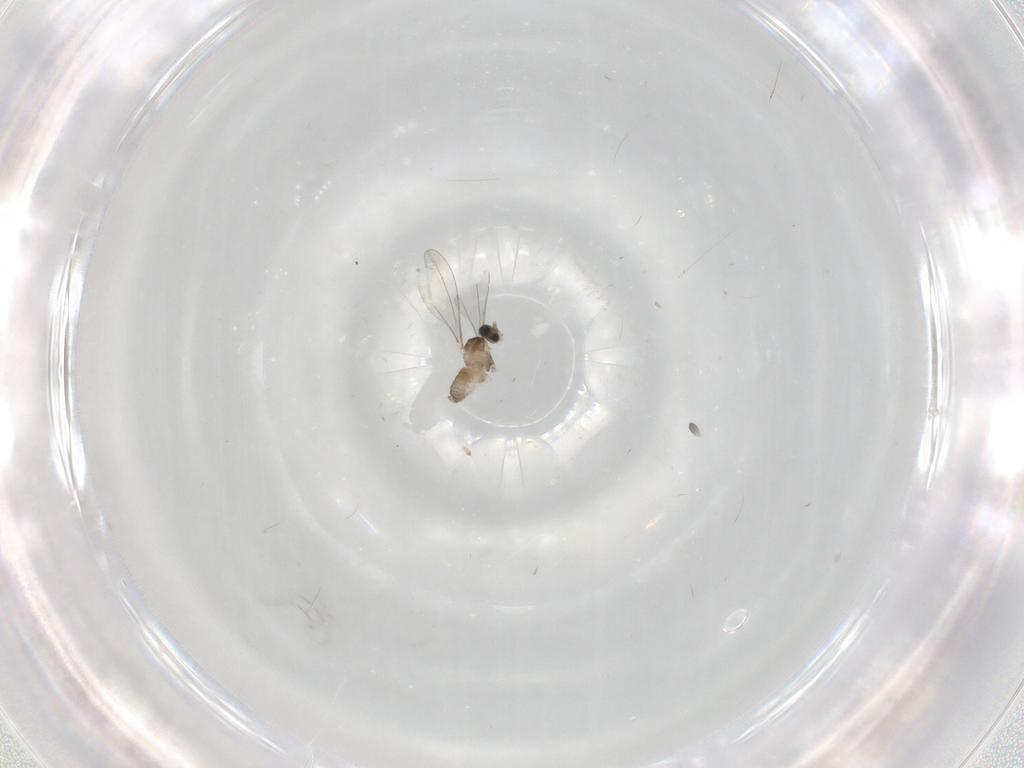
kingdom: Animalia
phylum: Arthropoda
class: Insecta
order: Diptera
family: Cecidomyiidae
